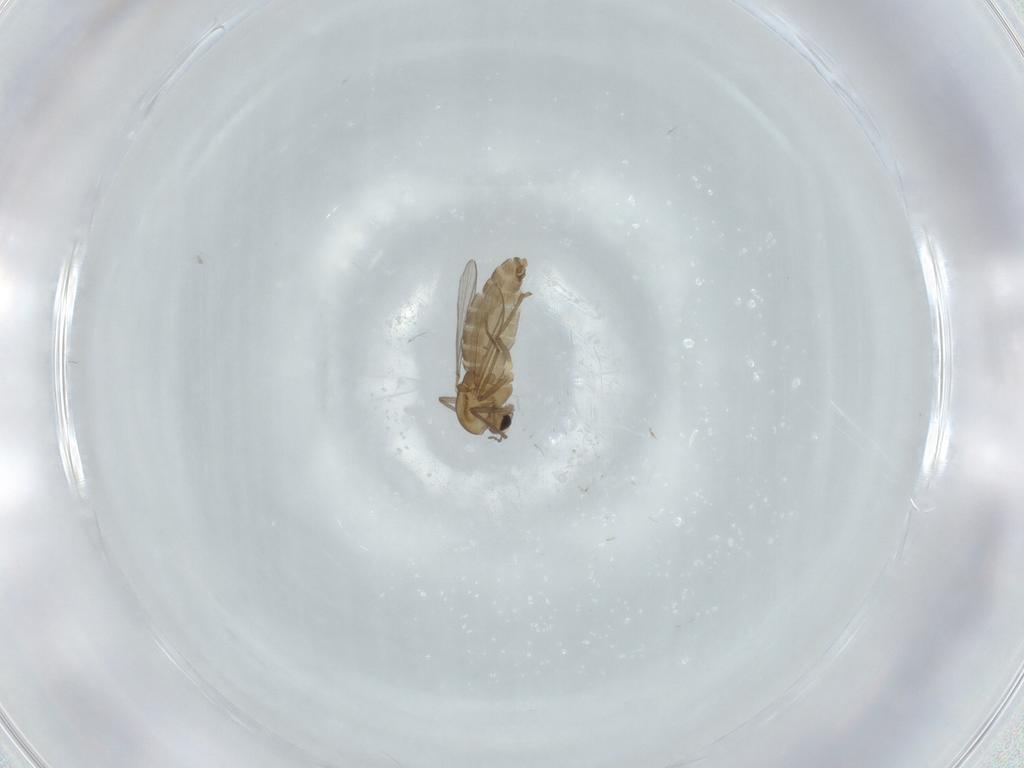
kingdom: Animalia
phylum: Arthropoda
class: Insecta
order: Diptera
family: Chironomidae
